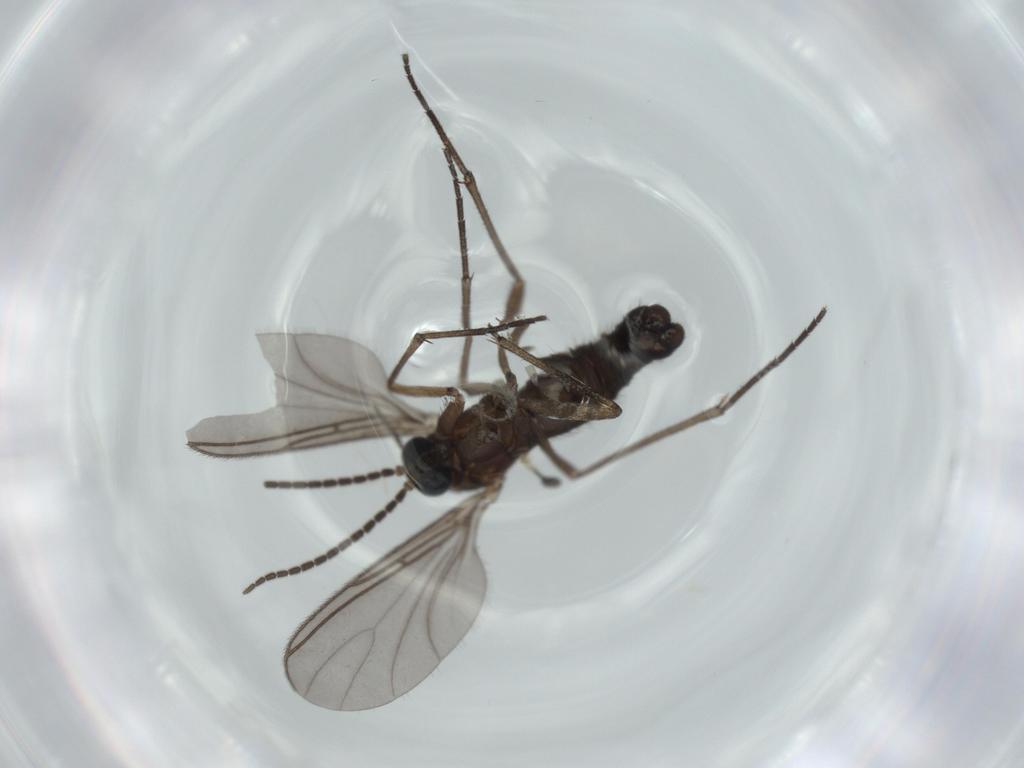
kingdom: Animalia
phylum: Arthropoda
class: Insecta
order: Diptera
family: Sciaridae
